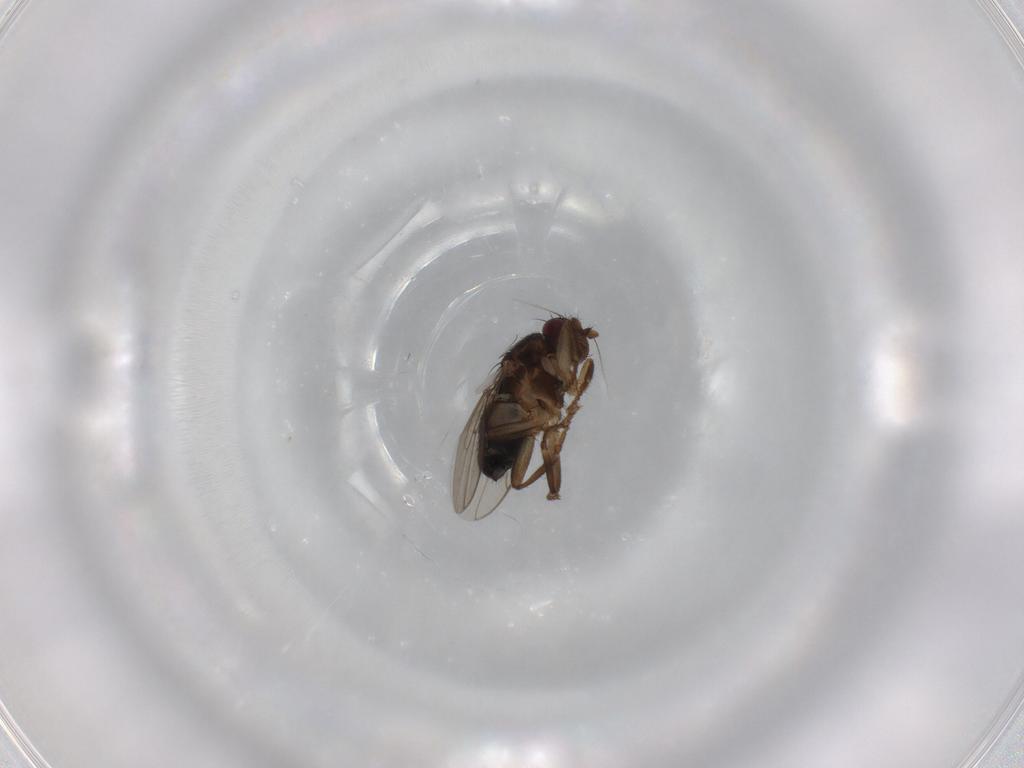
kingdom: Animalia
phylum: Arthropoda
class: Insecta
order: Diptera
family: Sphaeroceridae
